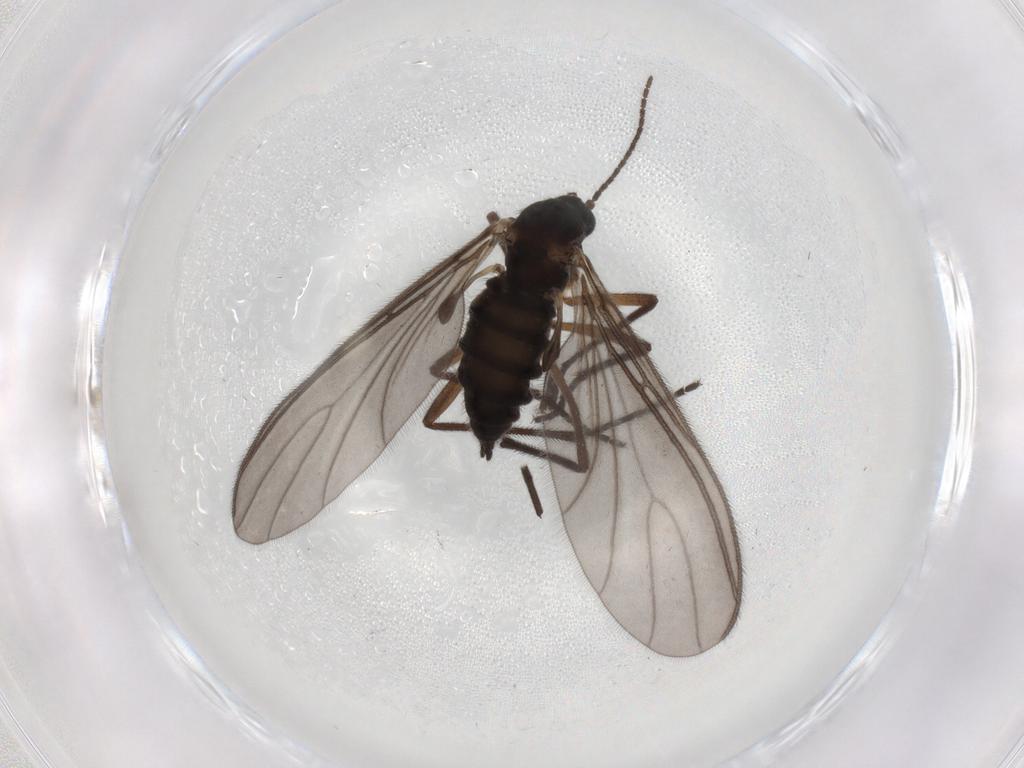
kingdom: Animalia
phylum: Arthropoda
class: Insecta
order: Diptera
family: Sciaridae
